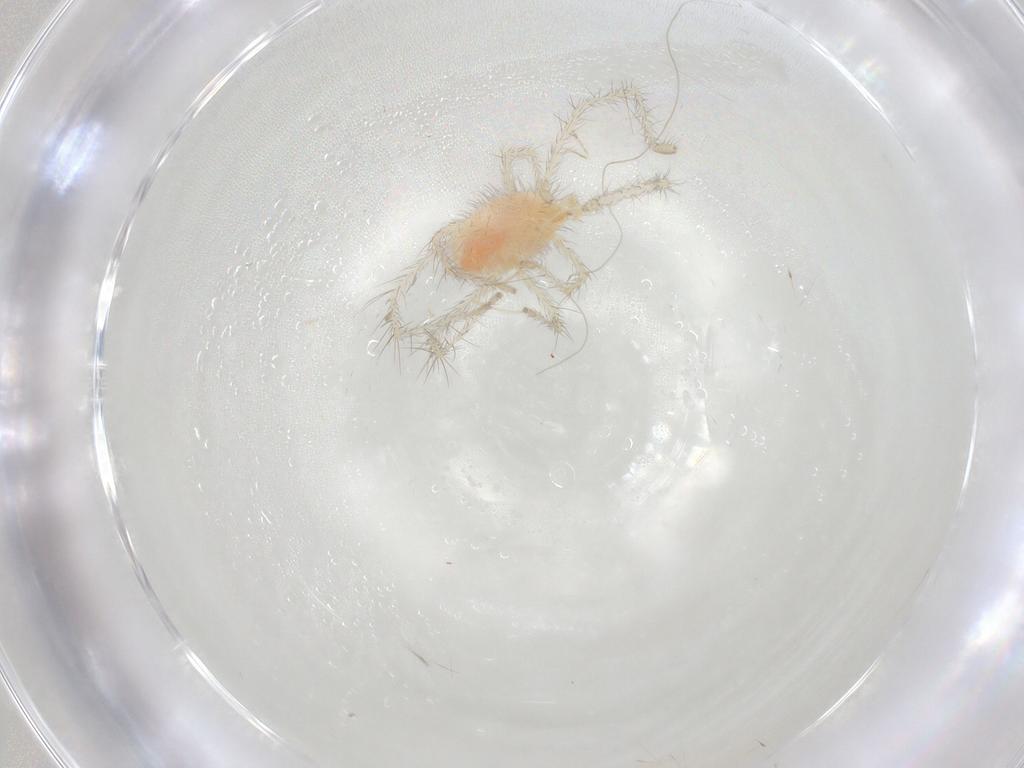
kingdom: Animalia
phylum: Arthropoda
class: Arachnida
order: Trombidiformes
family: Erythraeidae
